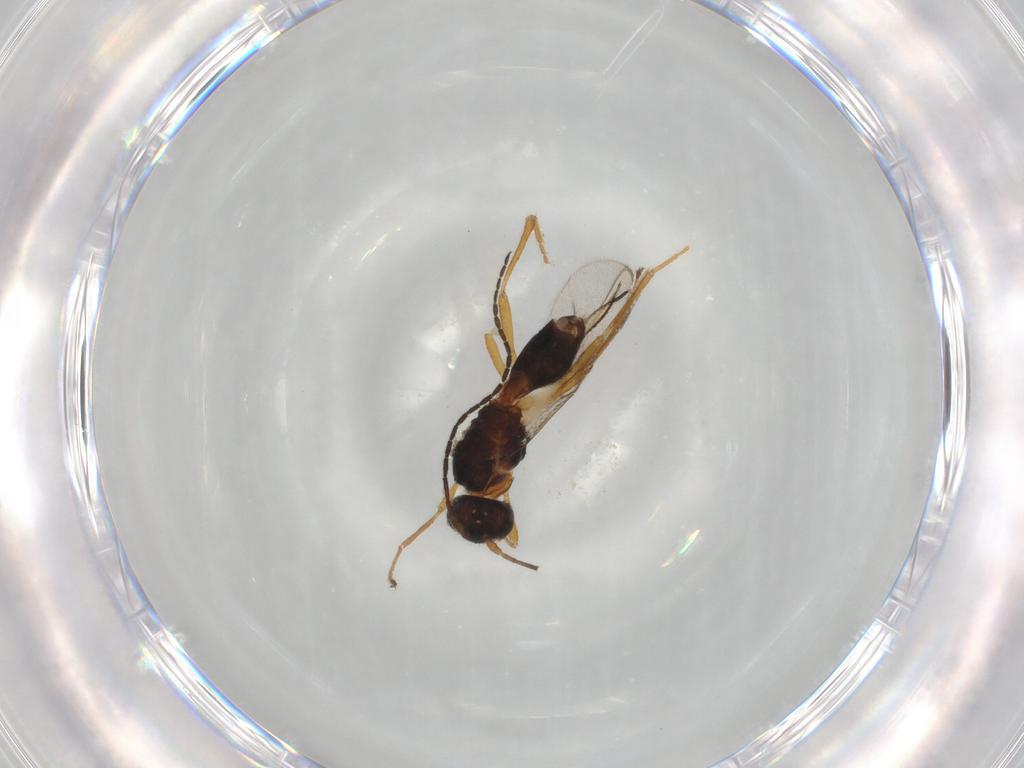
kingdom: Animalia
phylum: Arthropoda
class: Insecta
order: Hymenoptera
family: Braconidae
